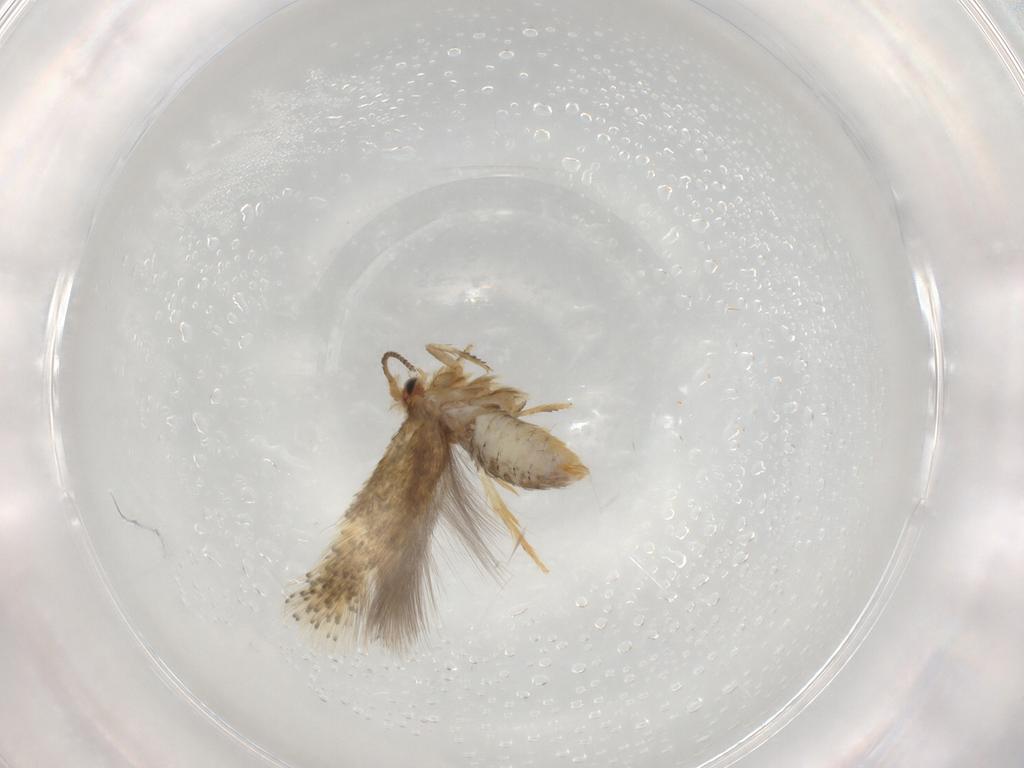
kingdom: Animalia
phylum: Arthropoda
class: Insecta
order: Lepidoptera
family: Nepticulidae
